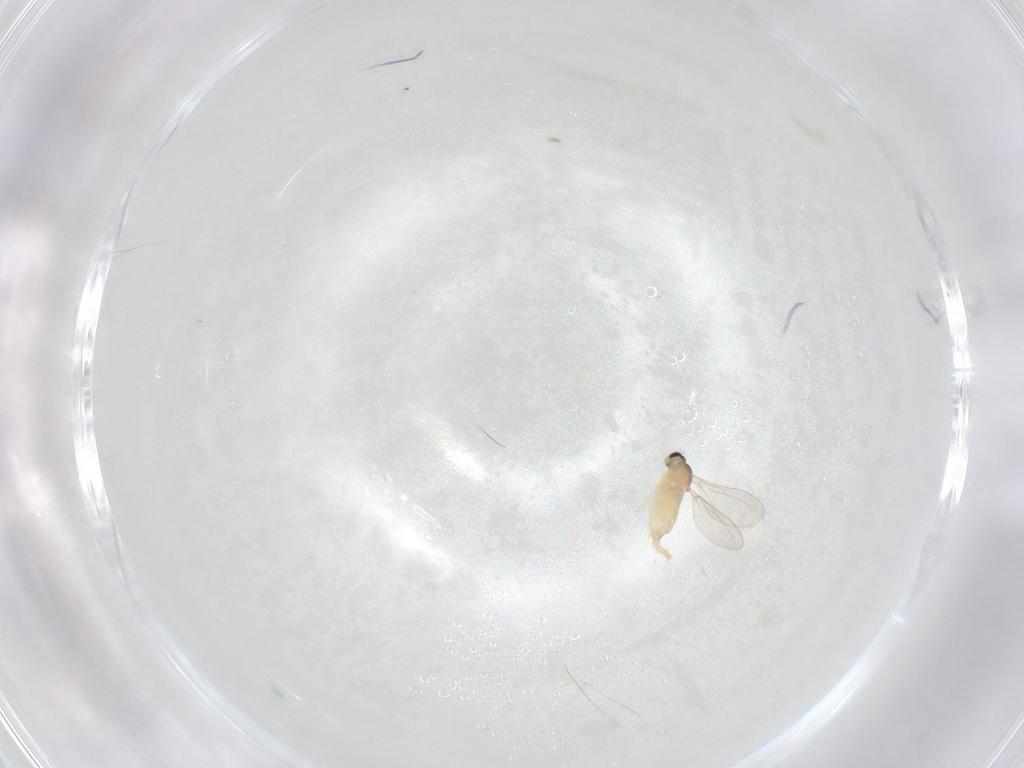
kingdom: Animalia
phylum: Arthropoda
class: Insecta
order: Diptera
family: Cecidomyiidae
